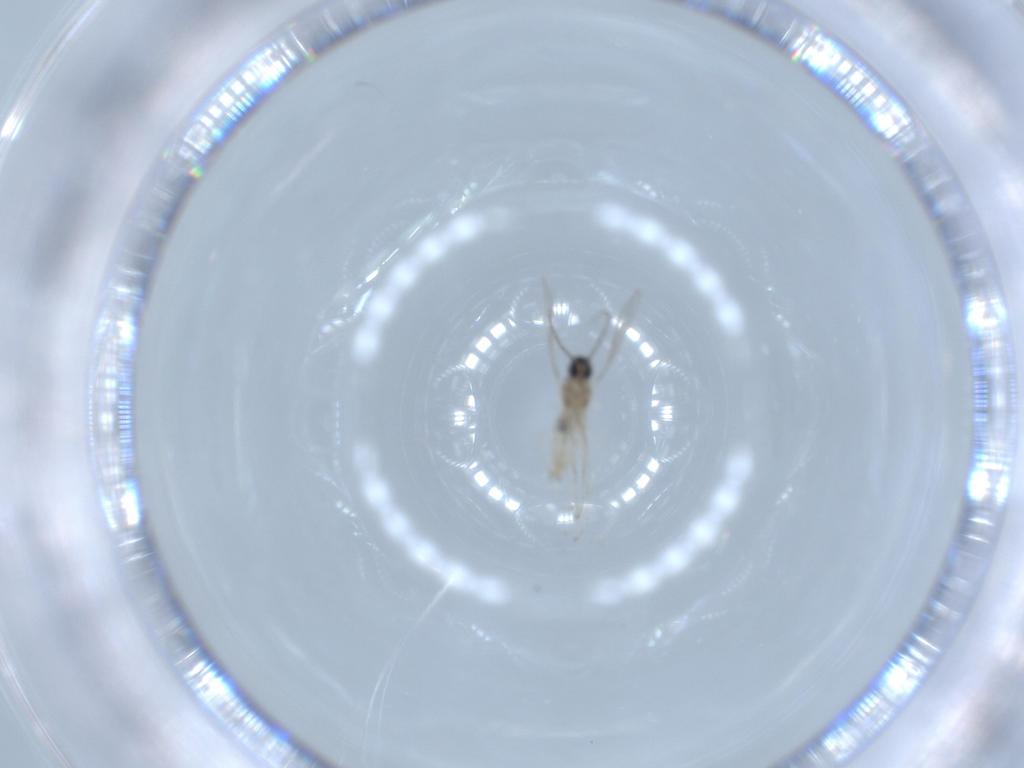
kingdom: Animalia
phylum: Arthropoda
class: Insecta
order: Diptera
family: Cecidomyiidae
